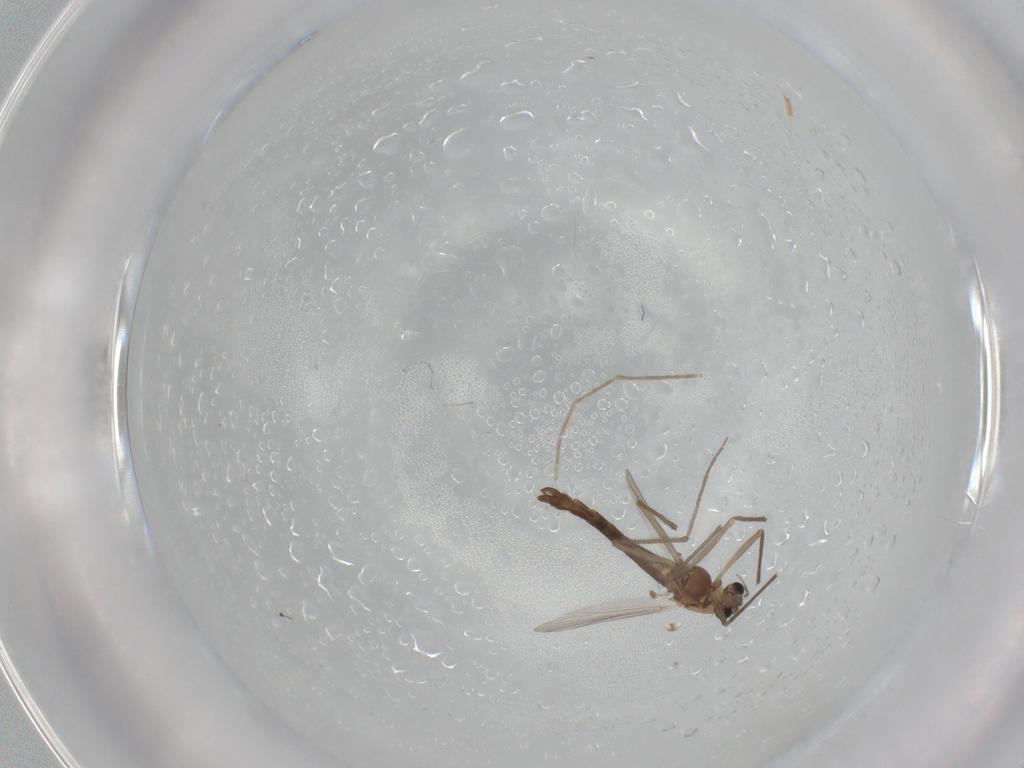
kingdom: Animalia
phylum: Arthropoda
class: Insecta
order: Diptera
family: Chironomidae
